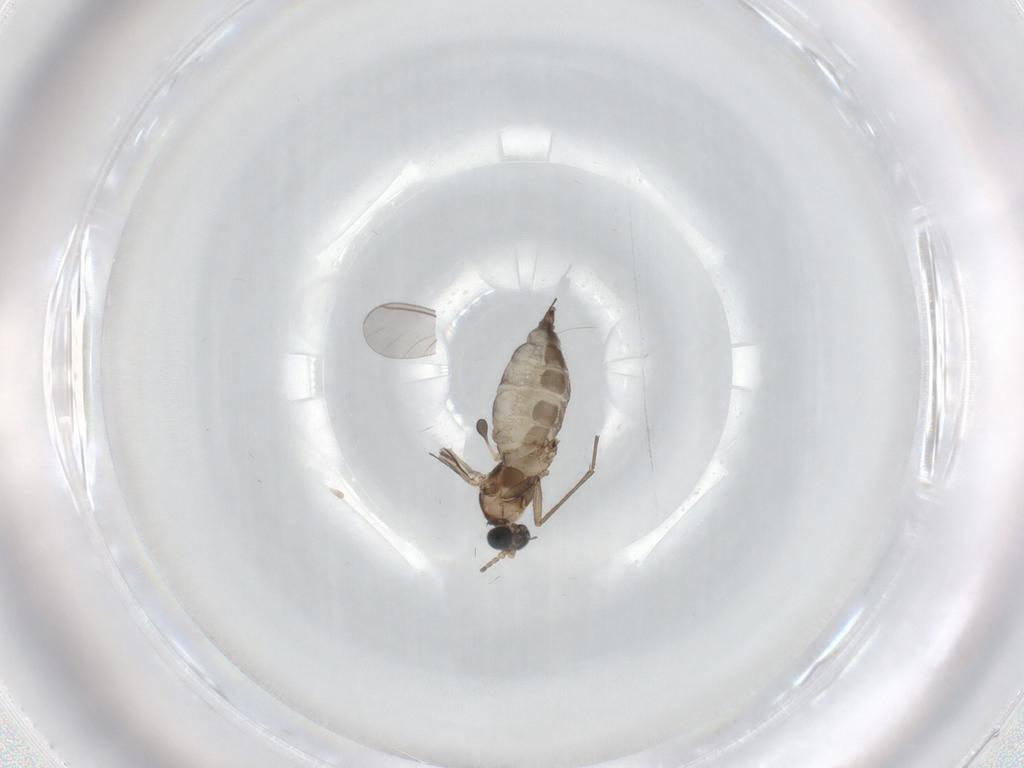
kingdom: Animalia
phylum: Arthropoda
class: Insecta
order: Diptera
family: Sciaridae
